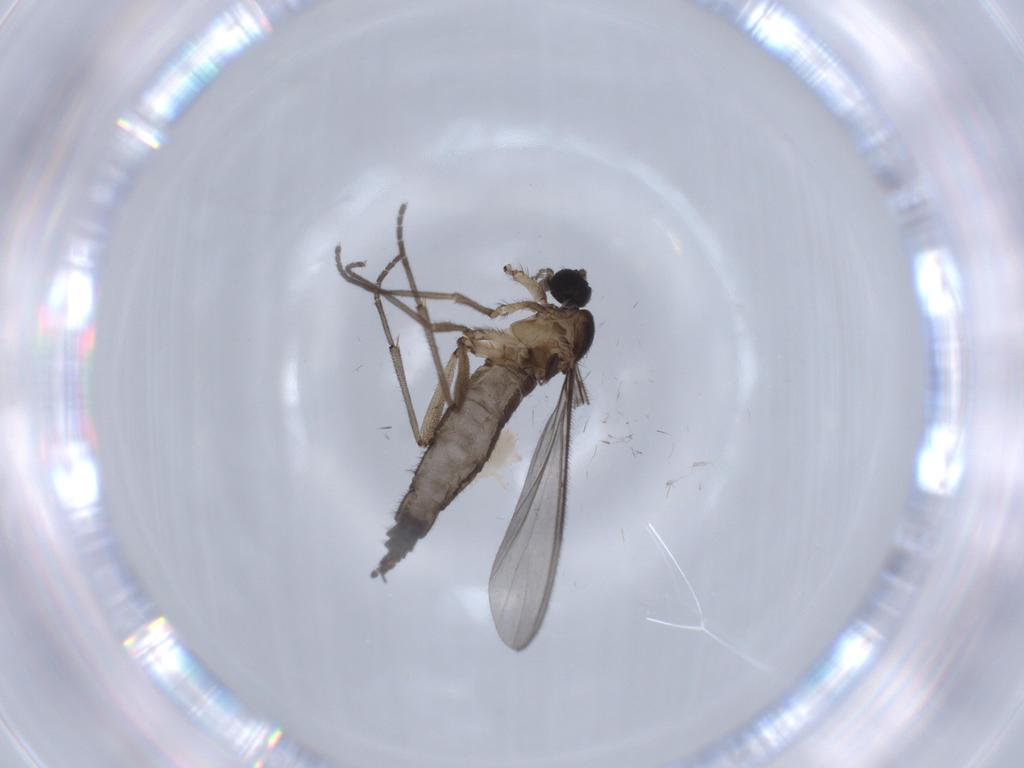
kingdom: Animalia
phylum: Arthropoda
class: Insecta
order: Diptera
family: Sciaridae
